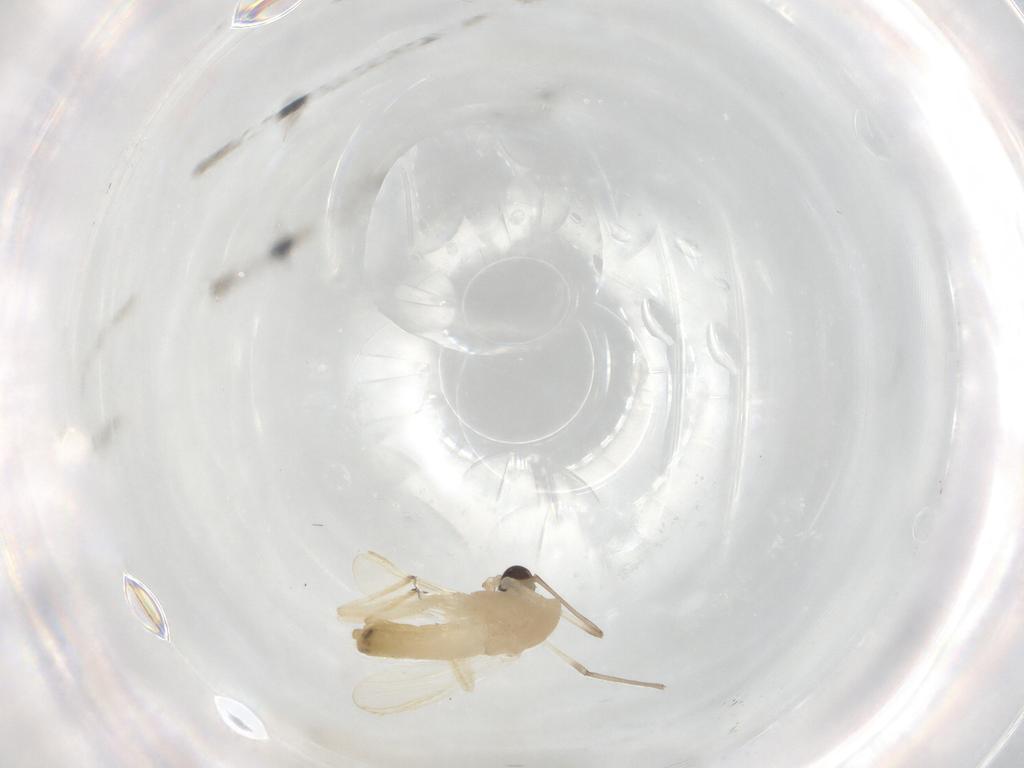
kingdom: Animalia
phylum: Arthropoda
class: Insecta
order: Diptera
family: Chironomidae
